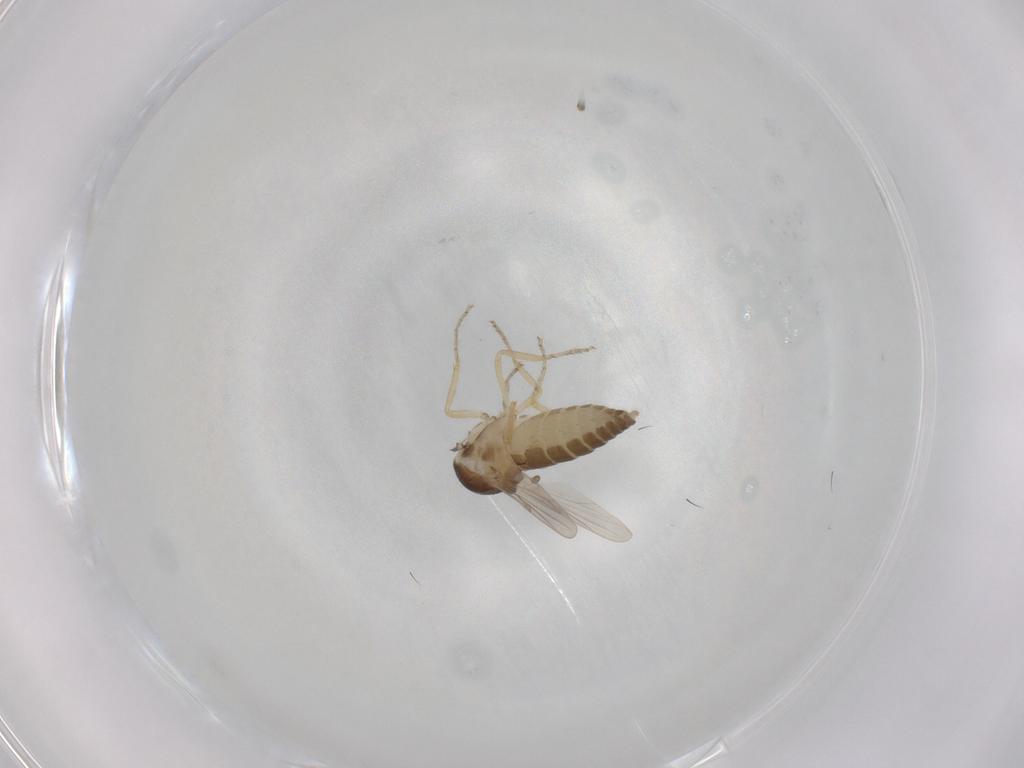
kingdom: Animalia
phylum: Arthropoda
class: Insecta
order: Diptera
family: Ceratopogonidae
